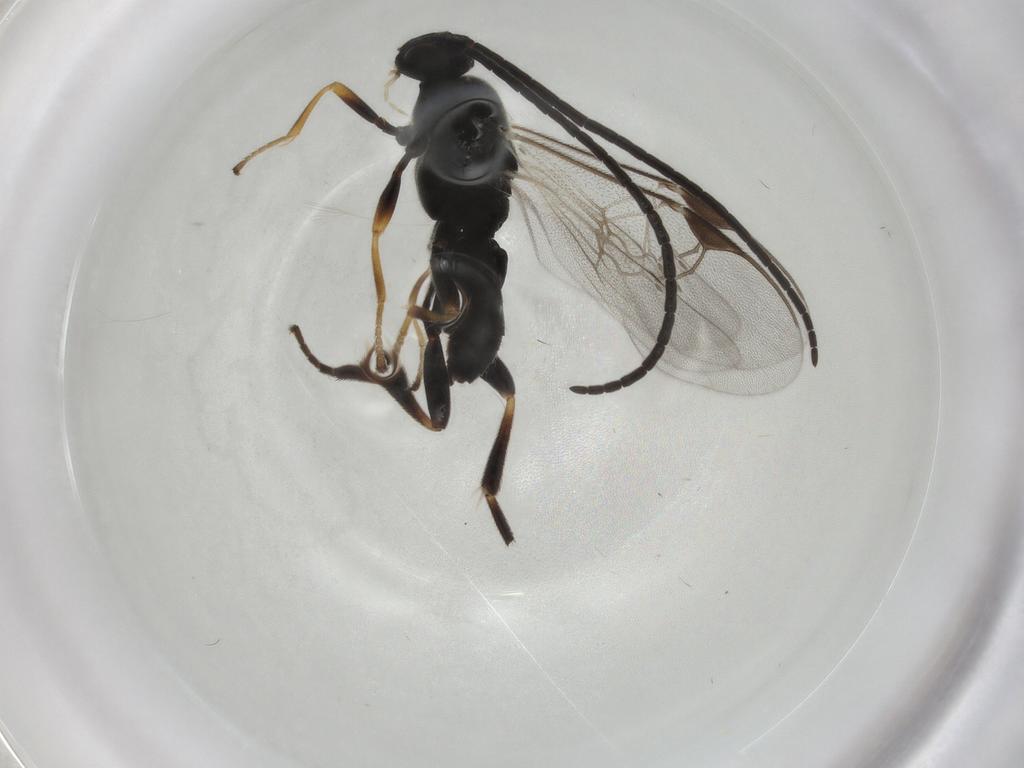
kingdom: Animalia
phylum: Arthropoda
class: Insecta
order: Hymenoptera
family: Braconidae
